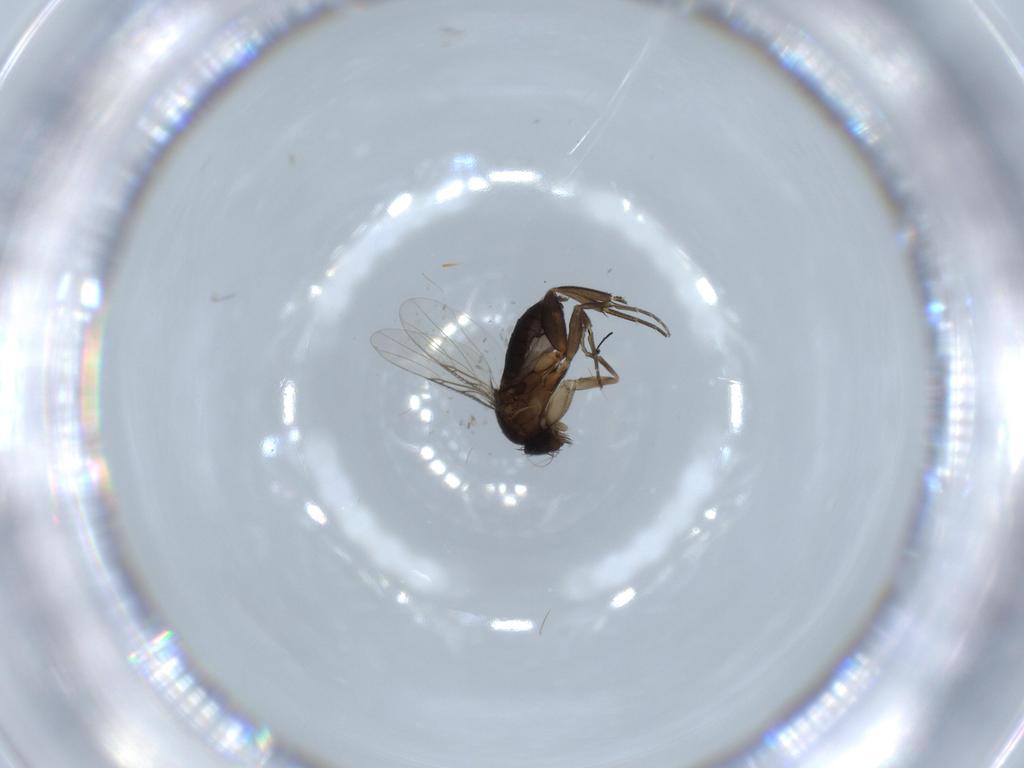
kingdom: Animalia
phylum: Arthropoda
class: Insecta
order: Diptera
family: Phoridae
